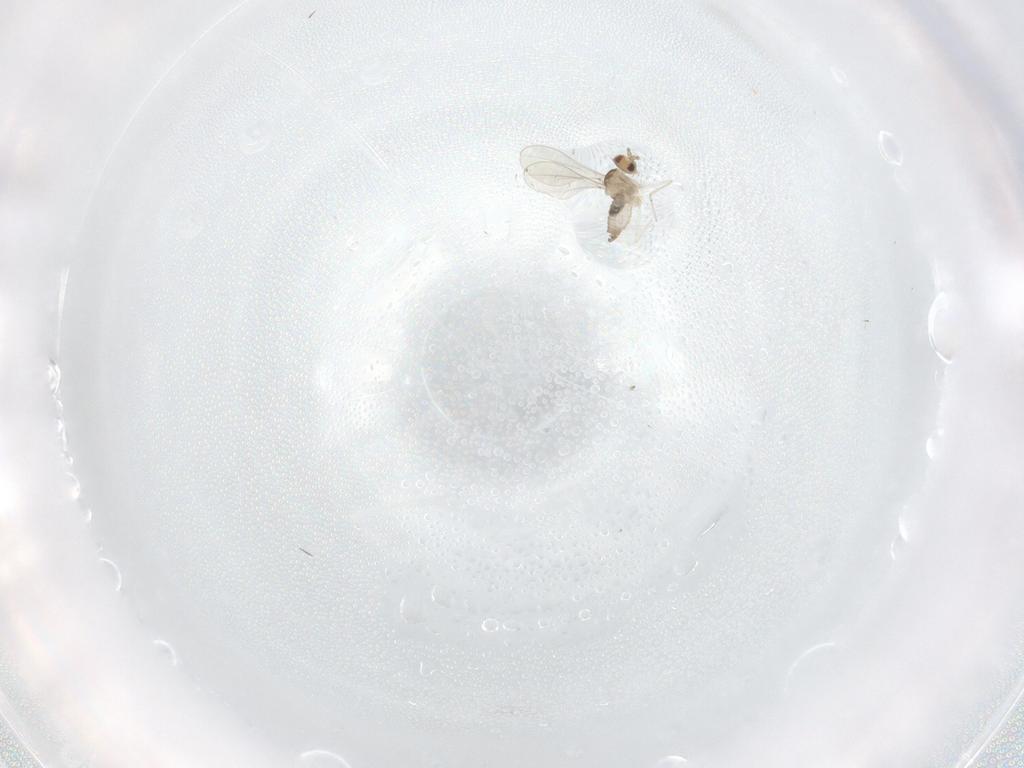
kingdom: Animalia
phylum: Arthropoda
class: Insecta
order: Diptera
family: Cecidomyiidae
